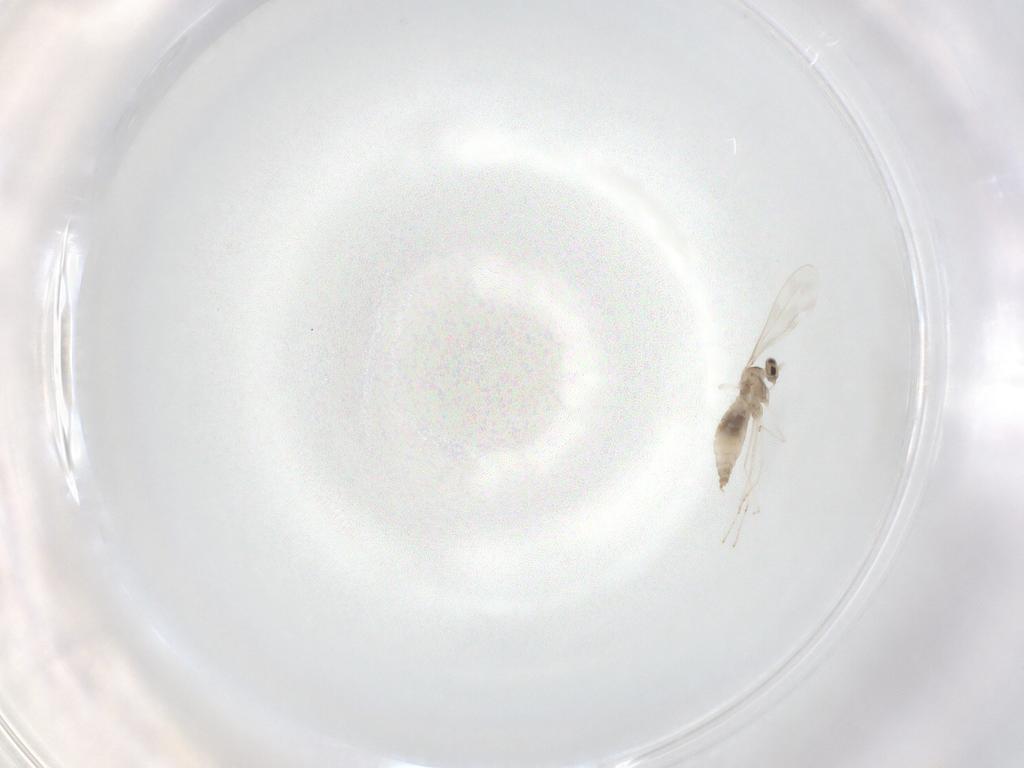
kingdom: Animalia
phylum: Arthropoda
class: Insecta
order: Diptera
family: Cecidomyiidae
